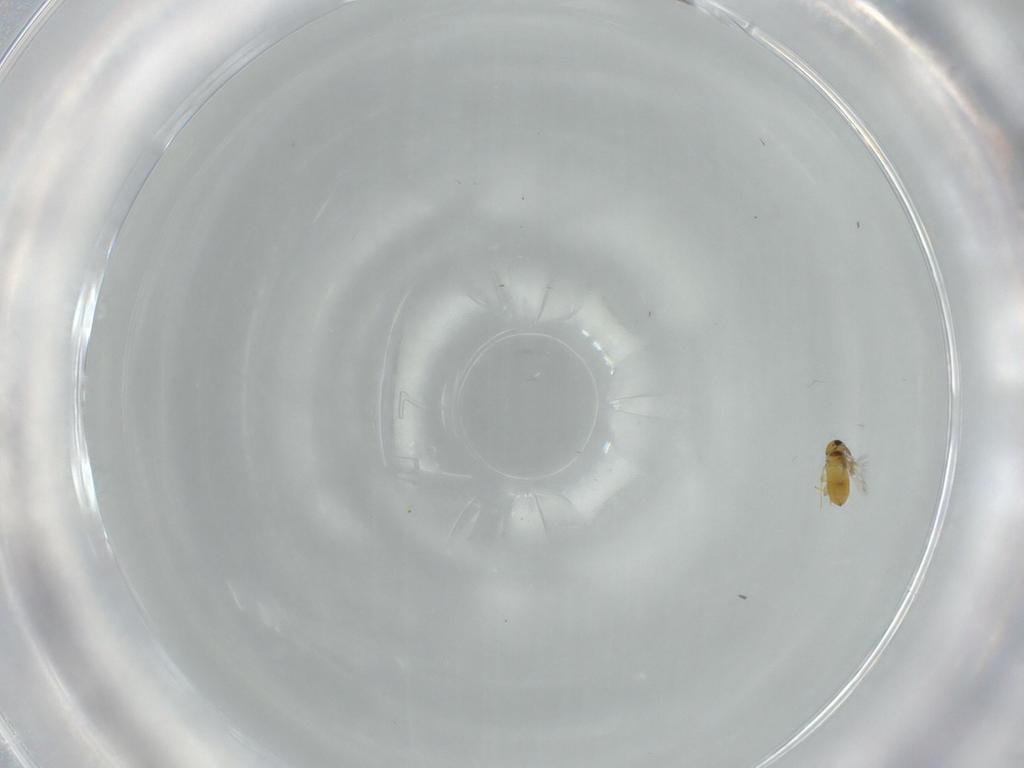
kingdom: Animalia
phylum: Arthropoda
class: Insecta
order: Hymenoptera
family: Signiphoridae
